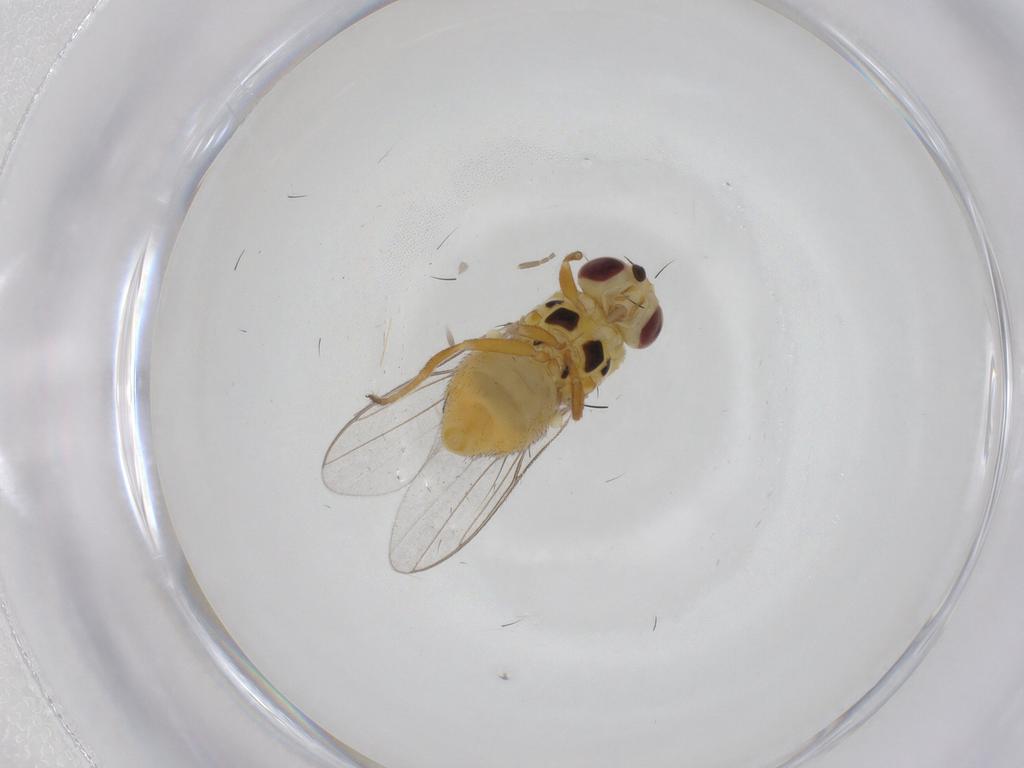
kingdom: Animalia
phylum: Arthropoda
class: Insecta
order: Diptera
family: Chloropidae
